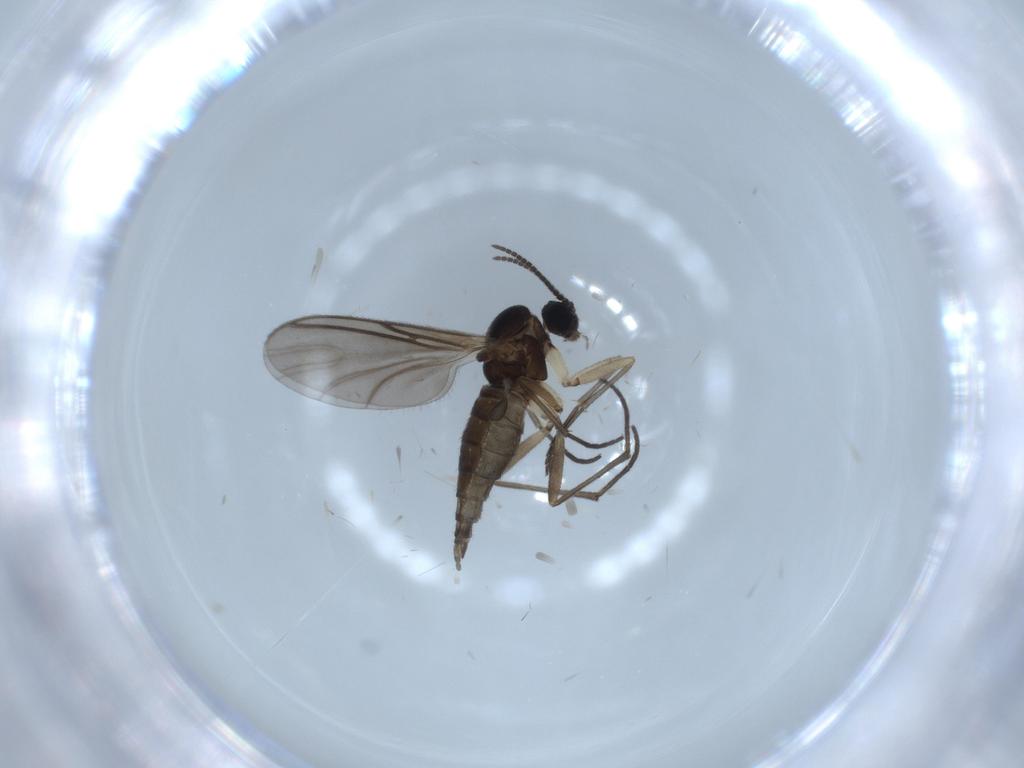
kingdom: Animalia
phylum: Arthropoda
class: Insecta
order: Diptera
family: Sciaridae
